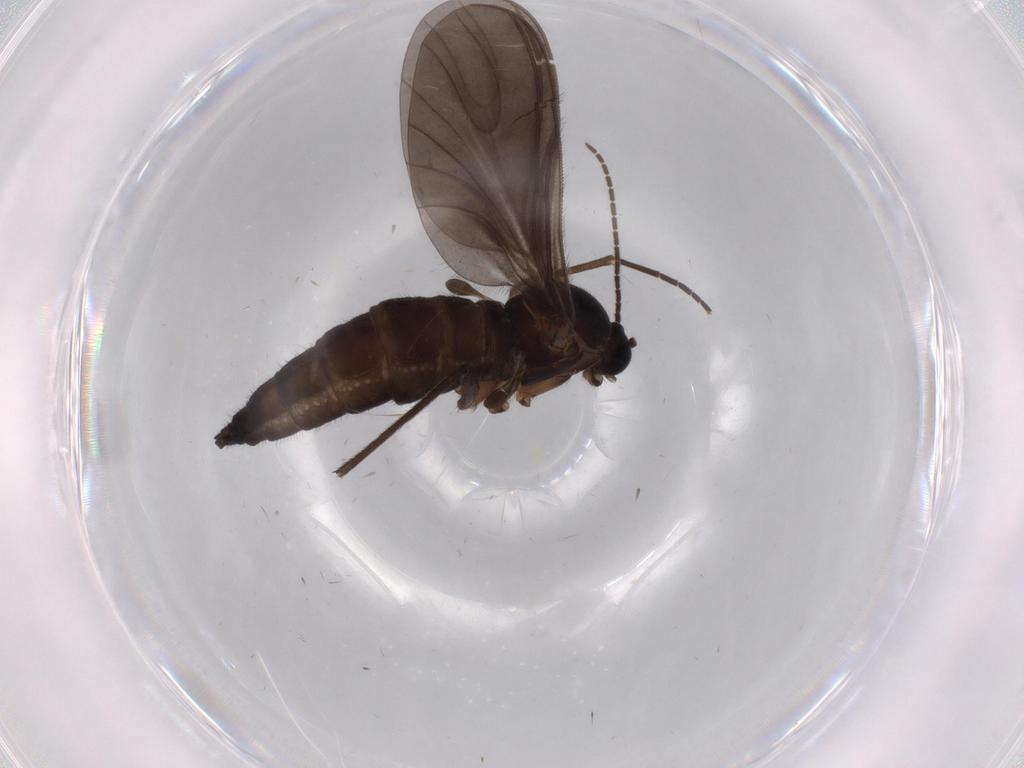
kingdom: Animalia
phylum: Arthropoda
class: Insecta
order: Diptera
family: Sciaridae
